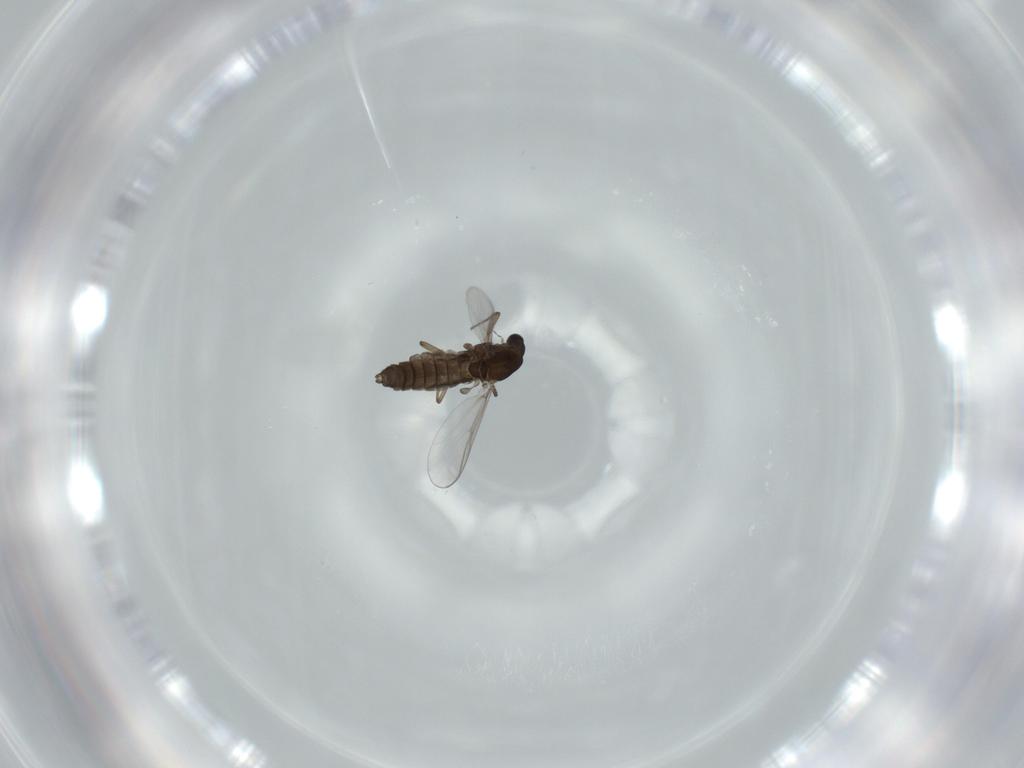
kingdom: Animalia
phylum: Arthropoda
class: Insecta
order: Diptera
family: Chironomidae
